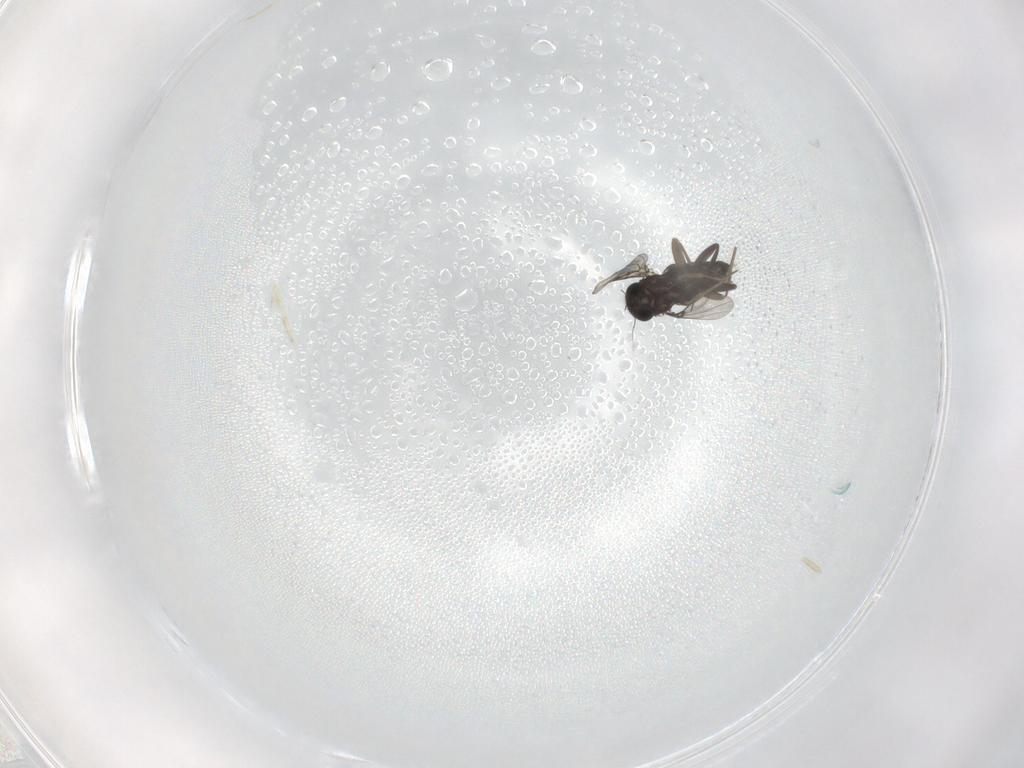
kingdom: Animalia
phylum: Arthropoda
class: Insecta
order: Diptera
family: Phoridae
